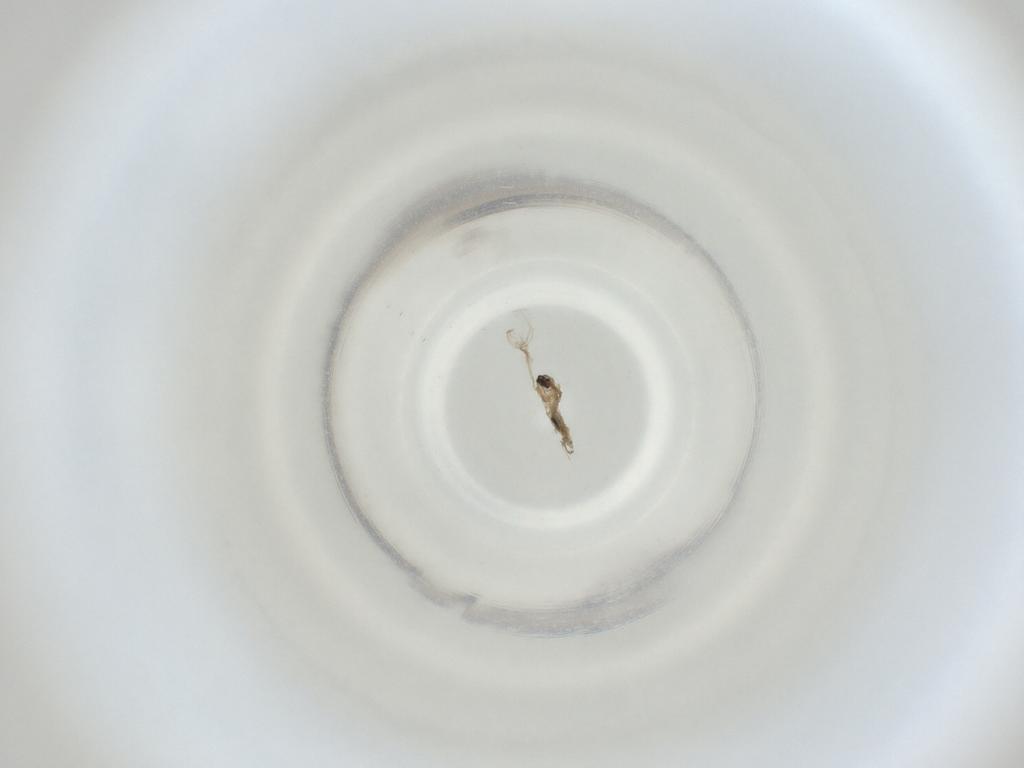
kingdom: Animalia
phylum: Arthropoda
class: Insecta
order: Diptera
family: Cecidomyiidae
